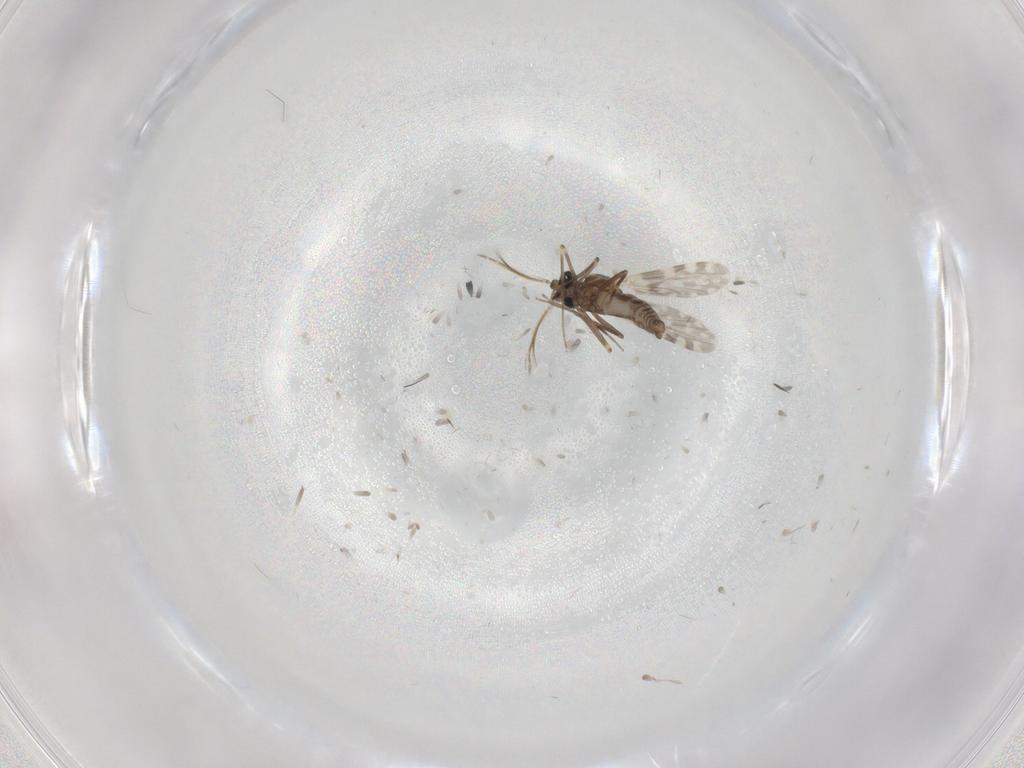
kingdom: Animalia
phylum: Arthropoda
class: Insecta
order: Diptera
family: Ceratopogonidae
